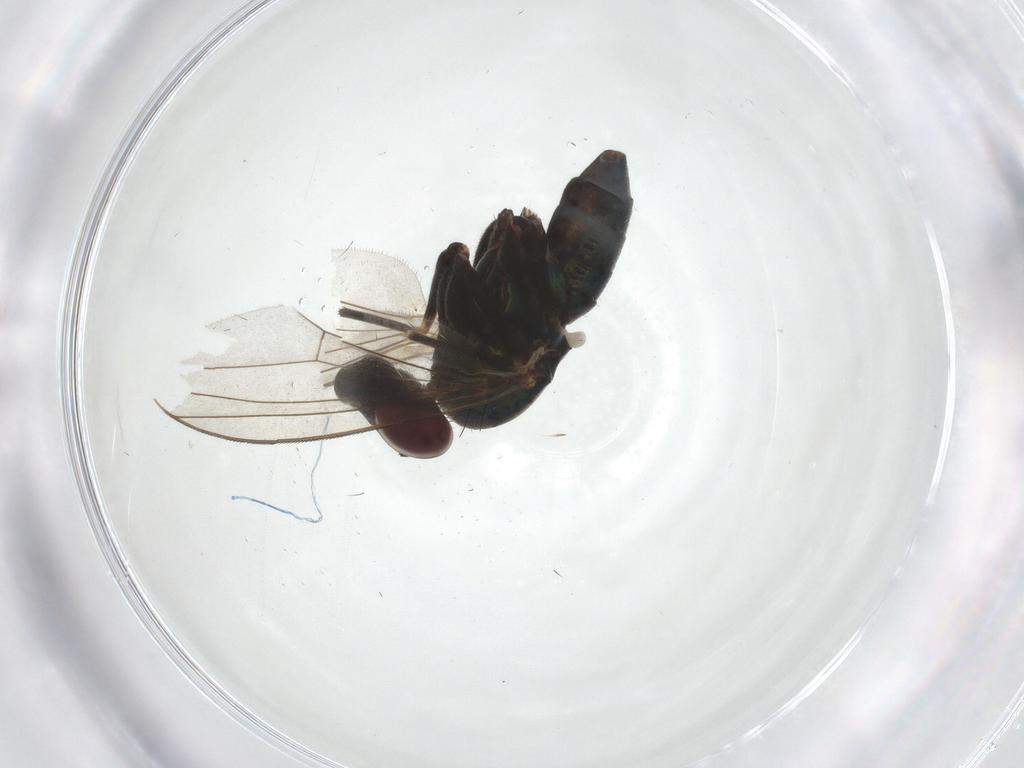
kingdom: Animalia
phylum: Arthropoda
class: Insecta
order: Diptera
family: Dolichopodidae
